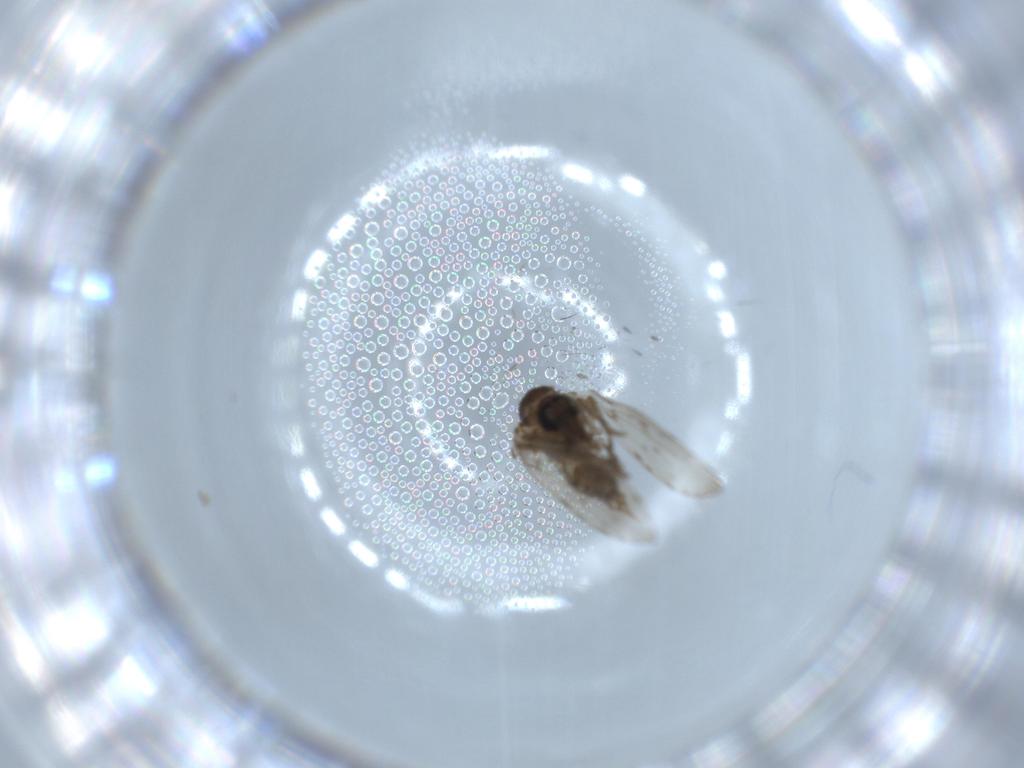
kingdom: Animalia
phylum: Arthropoda
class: Insecta
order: Diptera
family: Psychodidae
